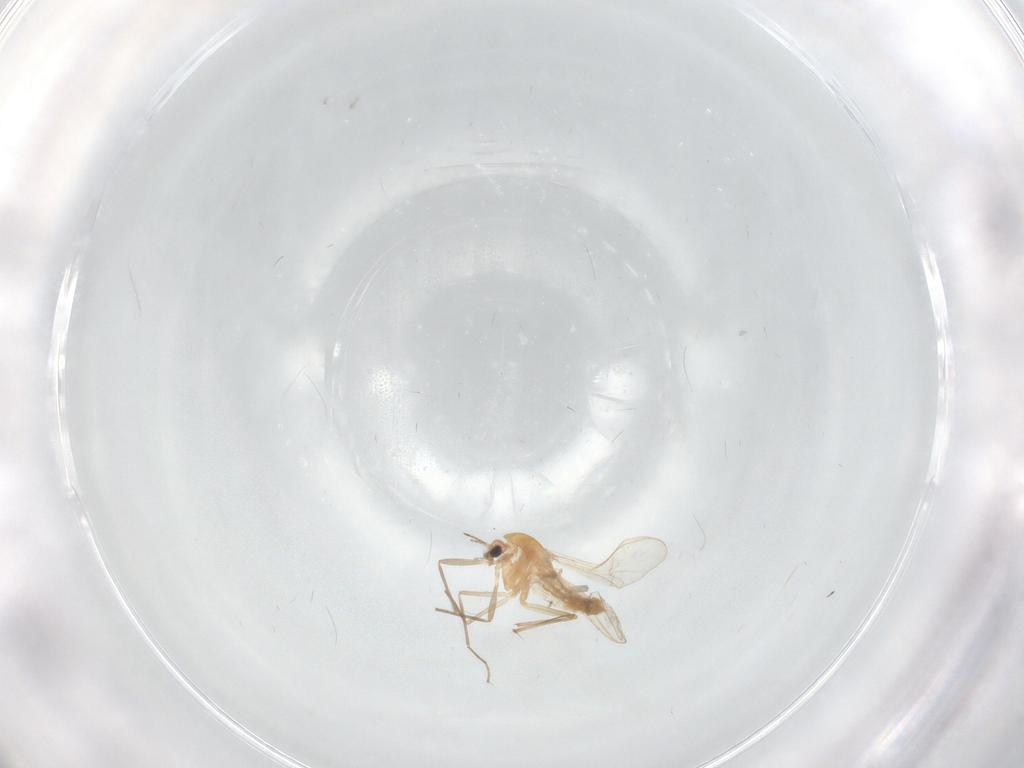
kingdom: Animalia
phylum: Arthropoda
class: Insecta
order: Diptera
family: Chironomidae
